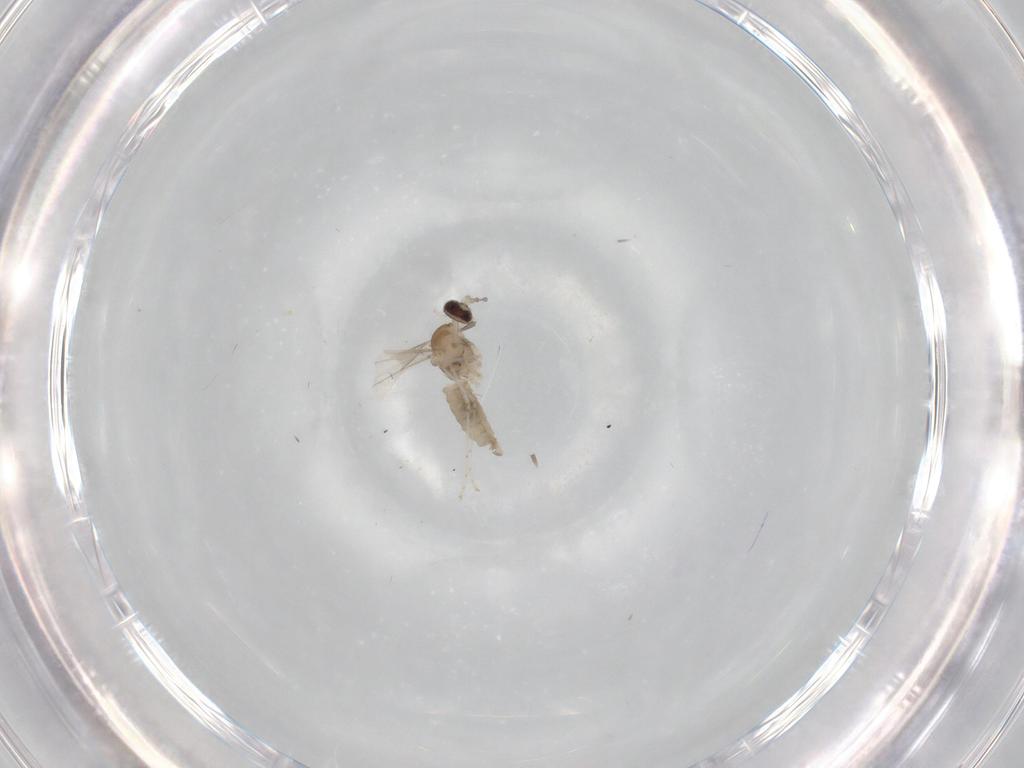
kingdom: Animalia
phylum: Arthropoda
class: Insecta
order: Diptera
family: Cecidomyiidae
